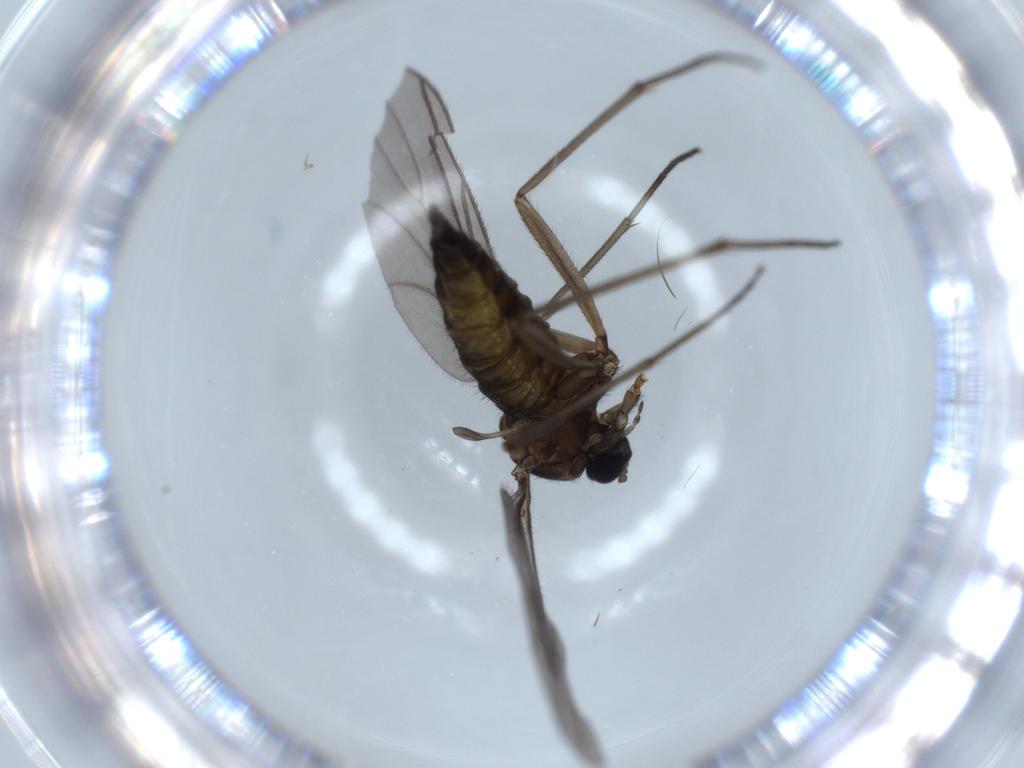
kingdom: Animalia
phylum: Arthropoda
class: Insecta
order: Diptera
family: Sciaridae
